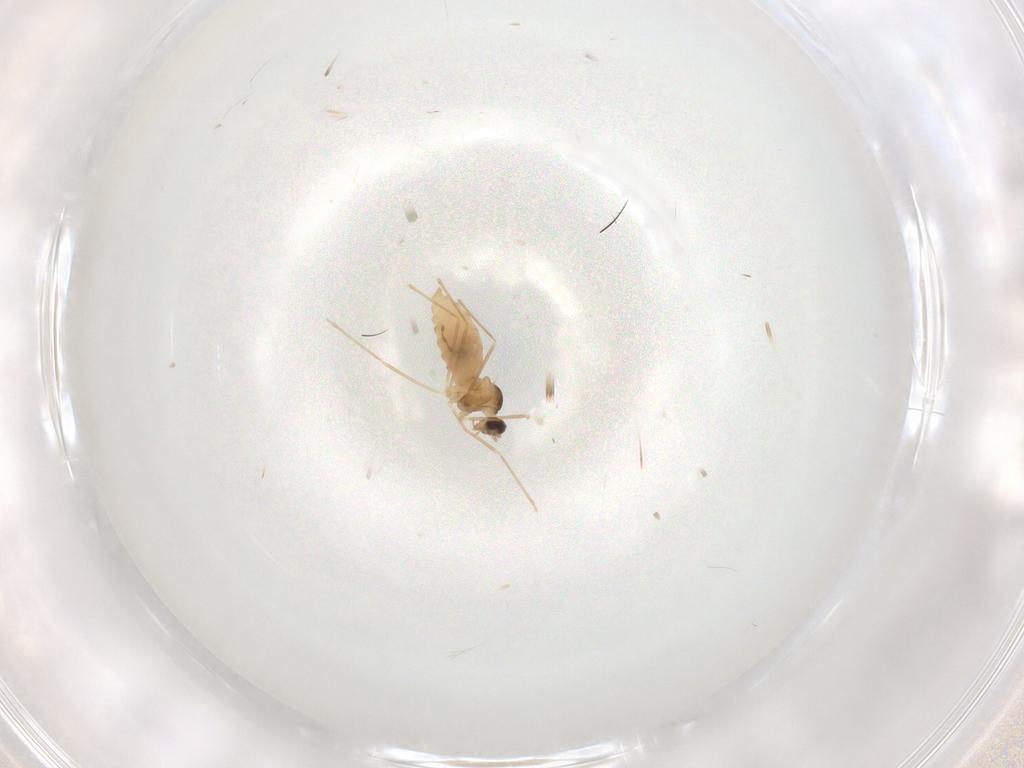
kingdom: Animalia
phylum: Arthropoda
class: Insecta
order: Diptera
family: Cecidomyiidae
